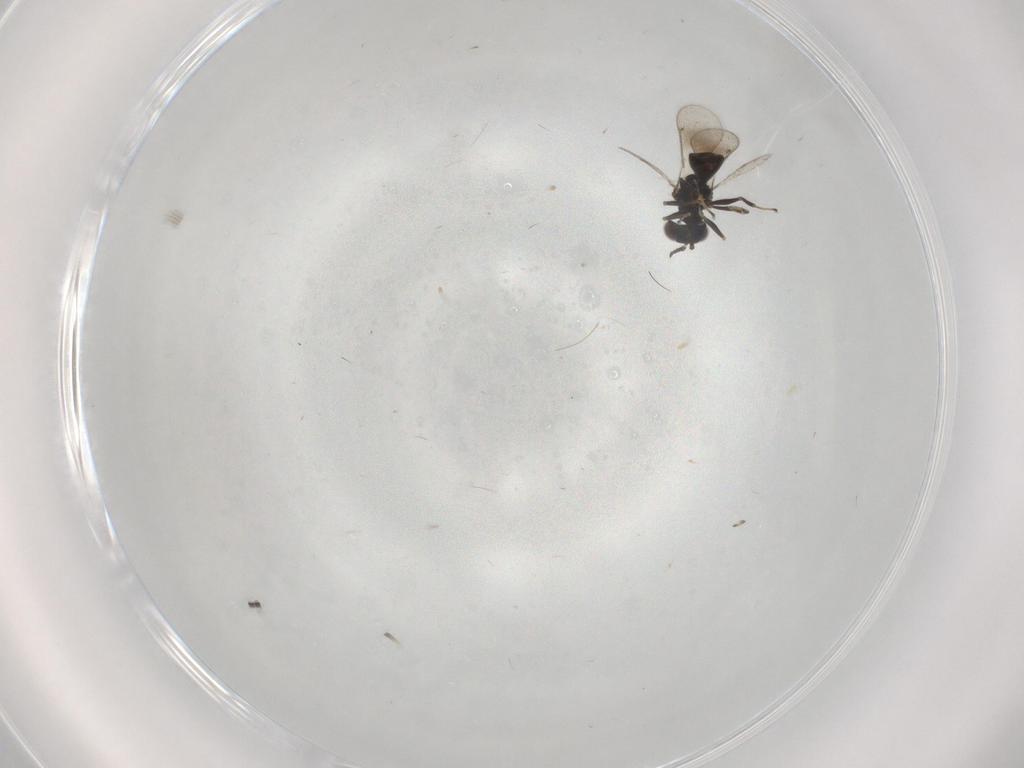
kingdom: Animalia
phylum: Arthropoda
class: Insecta
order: Hymenoptera
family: Eulophidae
